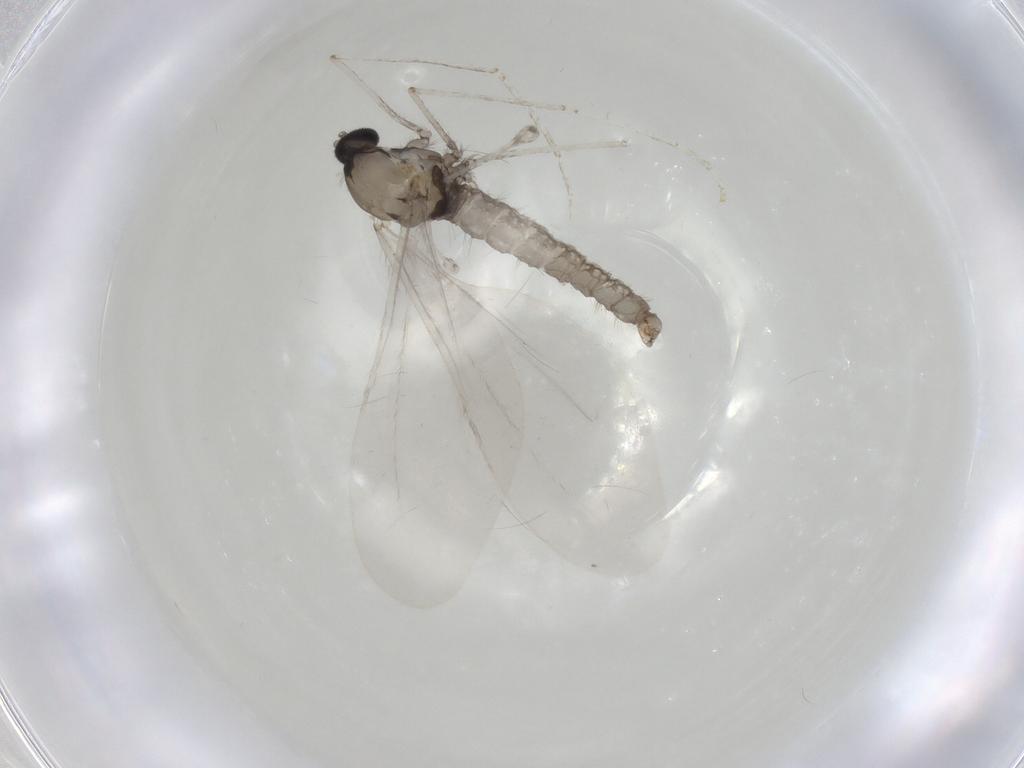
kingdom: Animalia
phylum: Arthropoda
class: Insecta
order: Diptera
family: Cecidomyiidae
